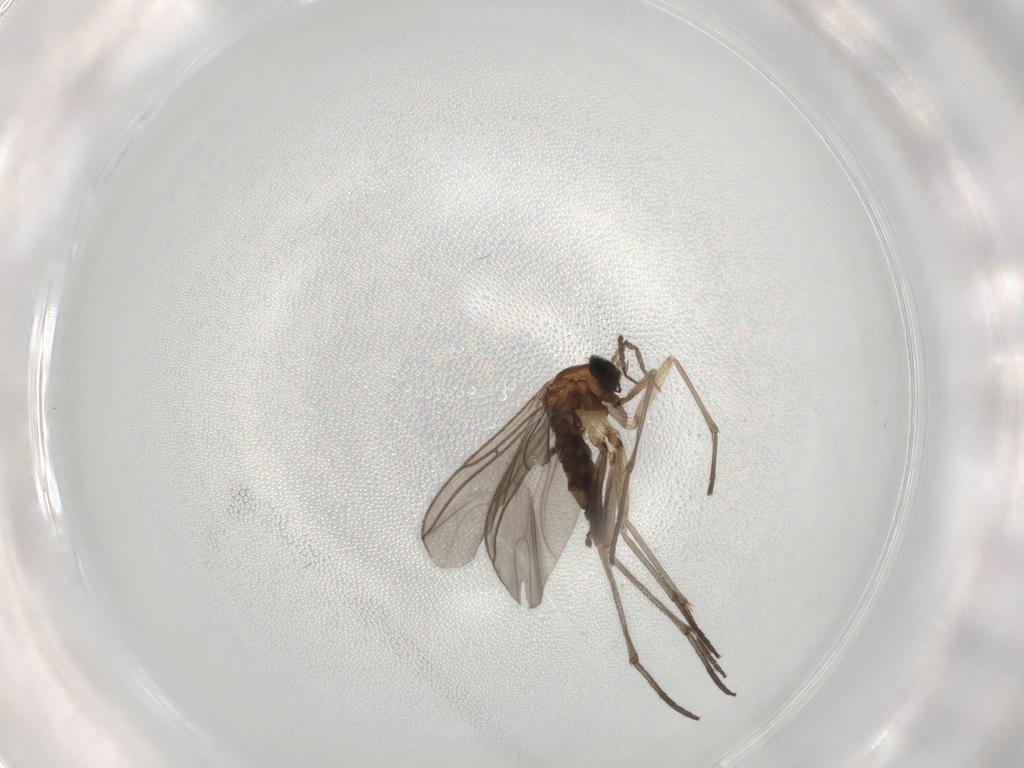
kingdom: Animalia
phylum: Arthropoda
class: Insecta
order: Diptera
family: Sciaridae
